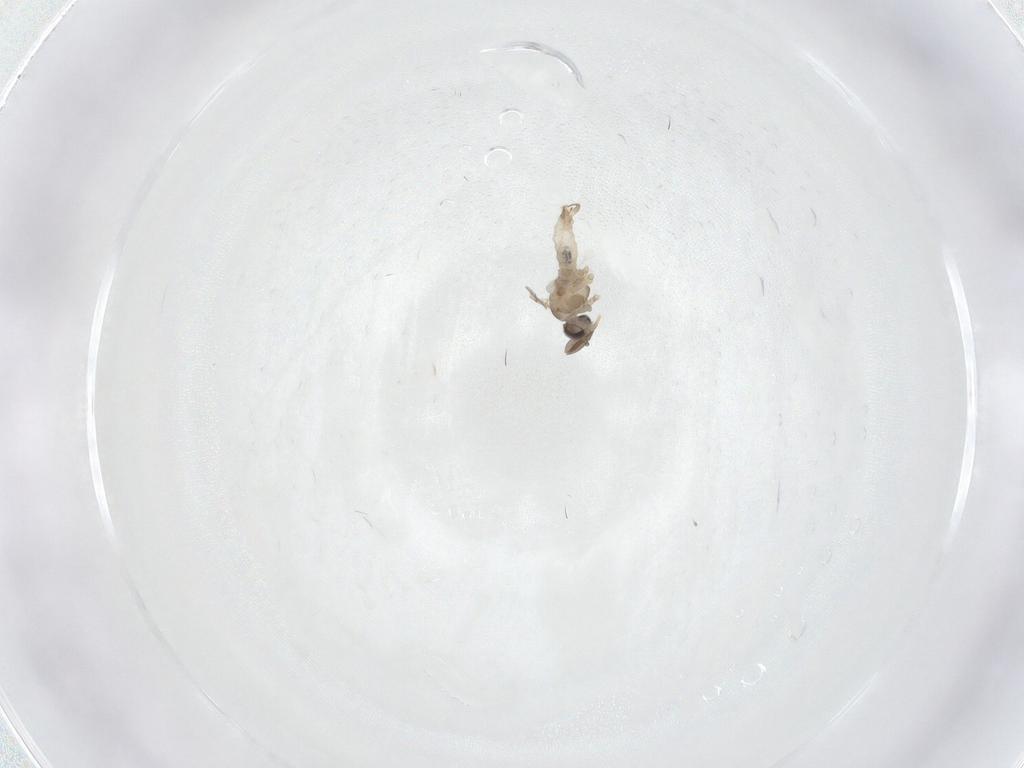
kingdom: Animalia
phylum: Arthropoda
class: Insecta
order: Diptera
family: Cecidomyiidae
